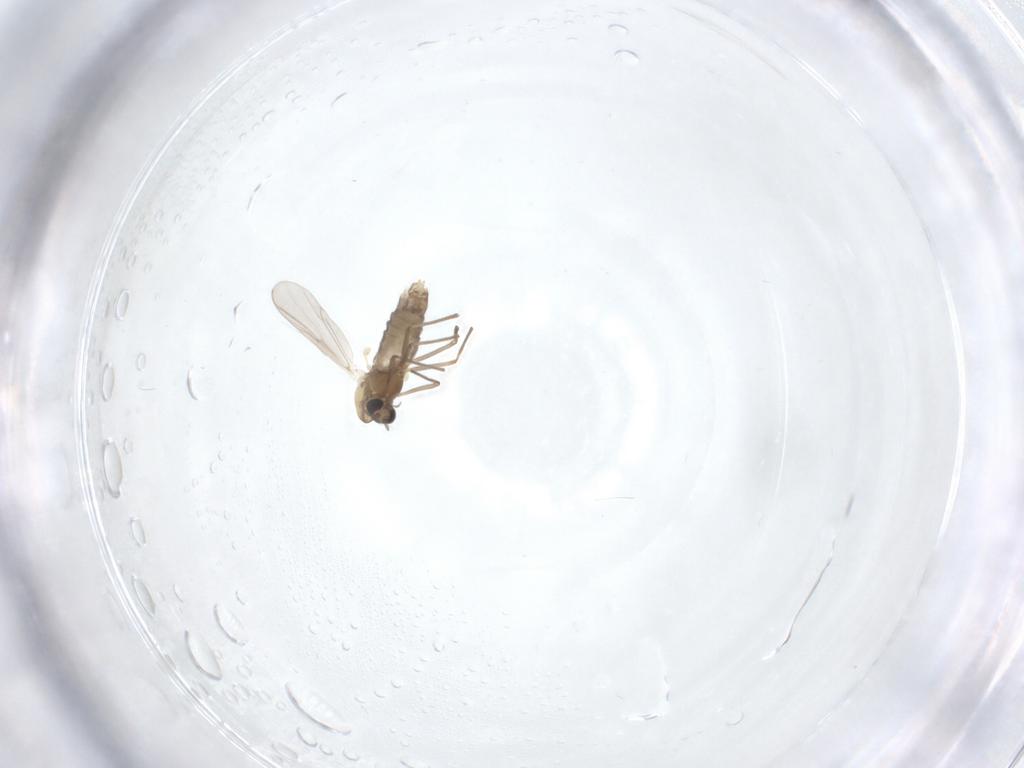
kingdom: Animalia
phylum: Arthropoda
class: Insecta
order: Diptera
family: Chironomidae
